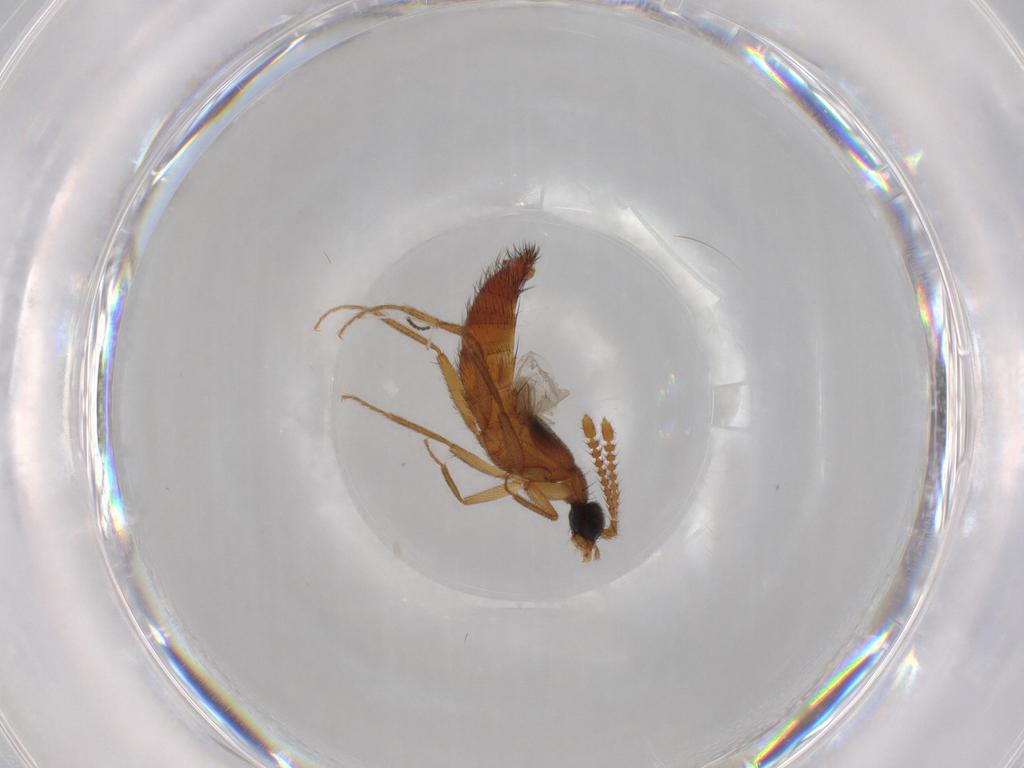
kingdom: Animalia
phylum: Arthropoda
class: Insecta
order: Coleoptera
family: Staphylinidae
